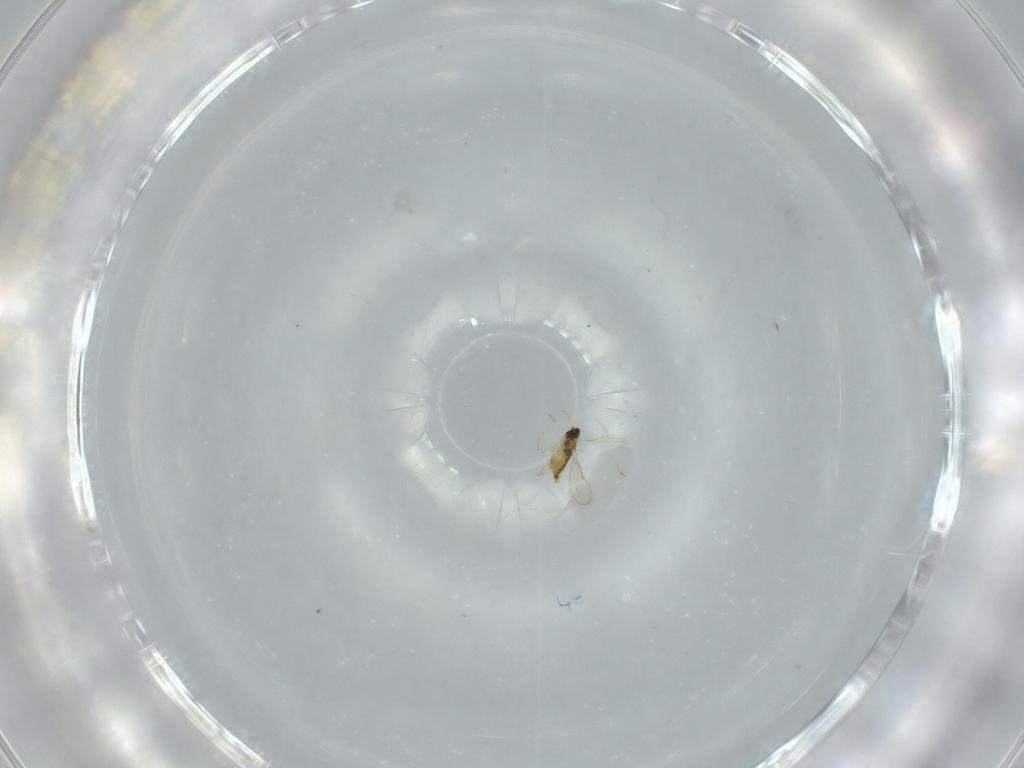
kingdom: Animalia
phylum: Arthropoda
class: Insecta
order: Hymenoptera
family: Aphelinidae
